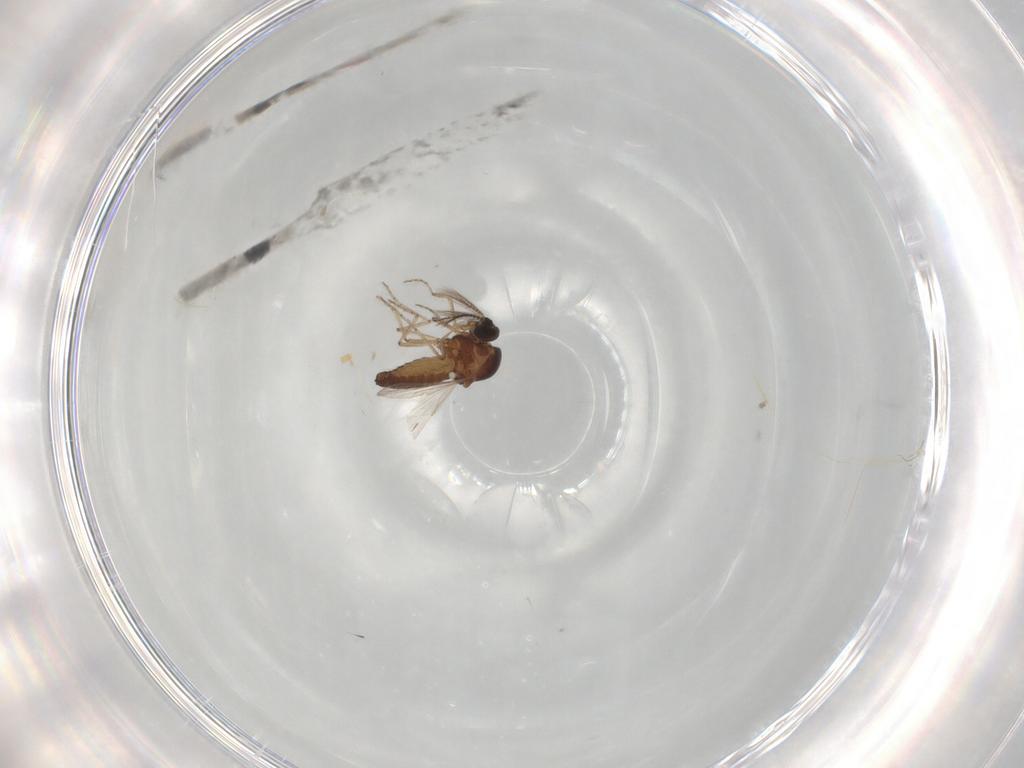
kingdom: Animalia
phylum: Arthropoda
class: Insecta
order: Diptera
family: Ceratopogonidae
